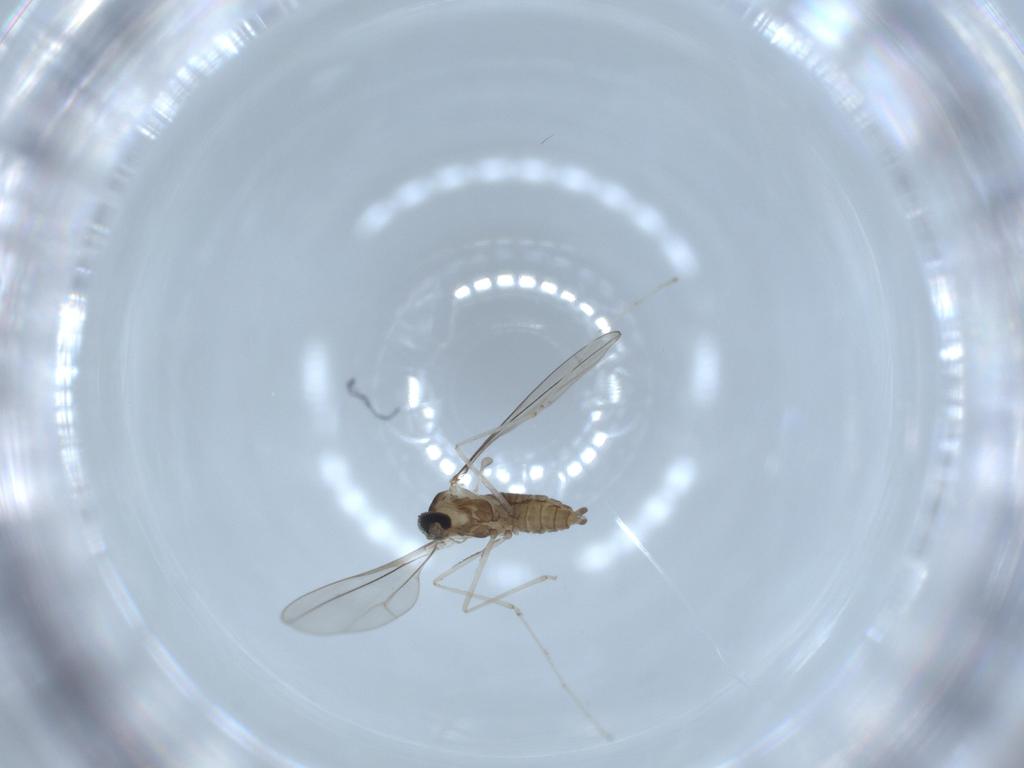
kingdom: Animalia
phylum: Arthropoda
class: Insecta
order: Diptera
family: Cecidomyiidae
